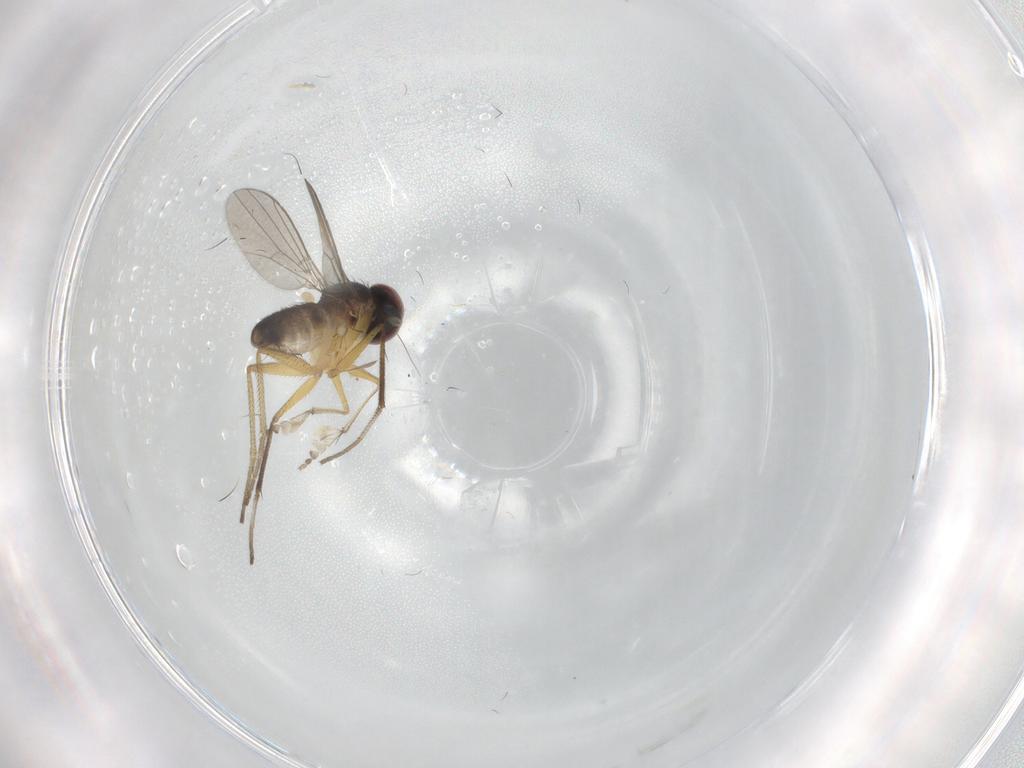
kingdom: Animalia
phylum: Arthropoda
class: Insecta
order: Diptera
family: Dolichopodidae
